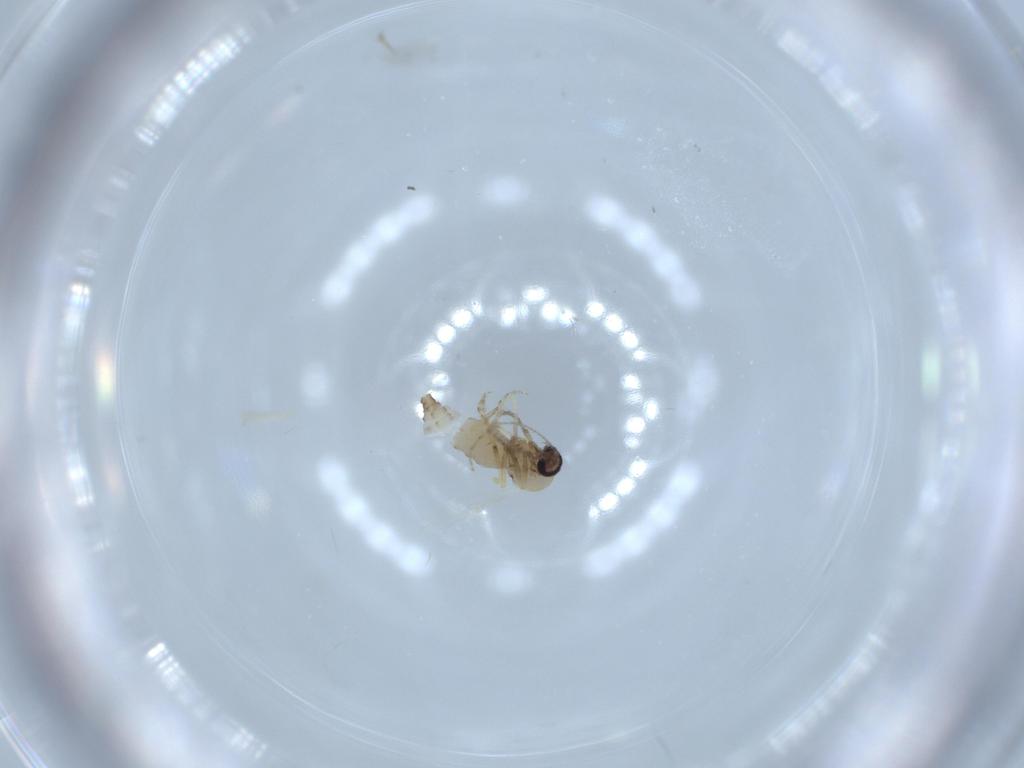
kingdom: Animalia
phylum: Arthropoda
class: Insecta
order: Diptera
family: Ceratopogonidae
